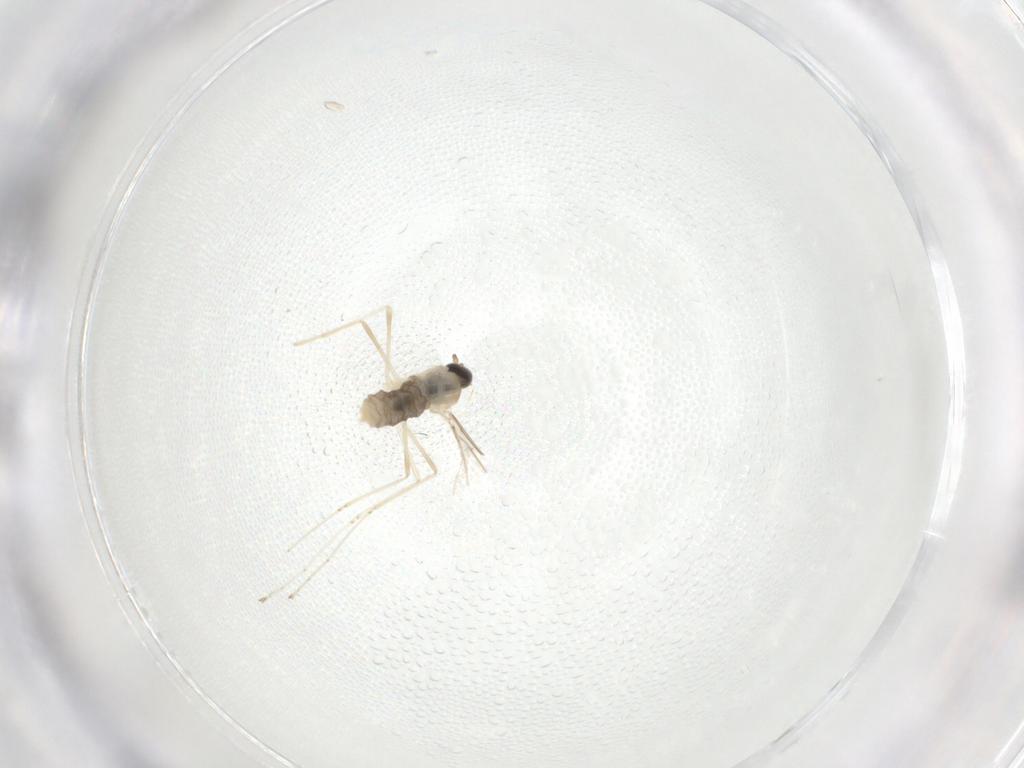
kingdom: Animalia
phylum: Arthropoda
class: Insecta
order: Diptera
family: Cecidomyiidae
